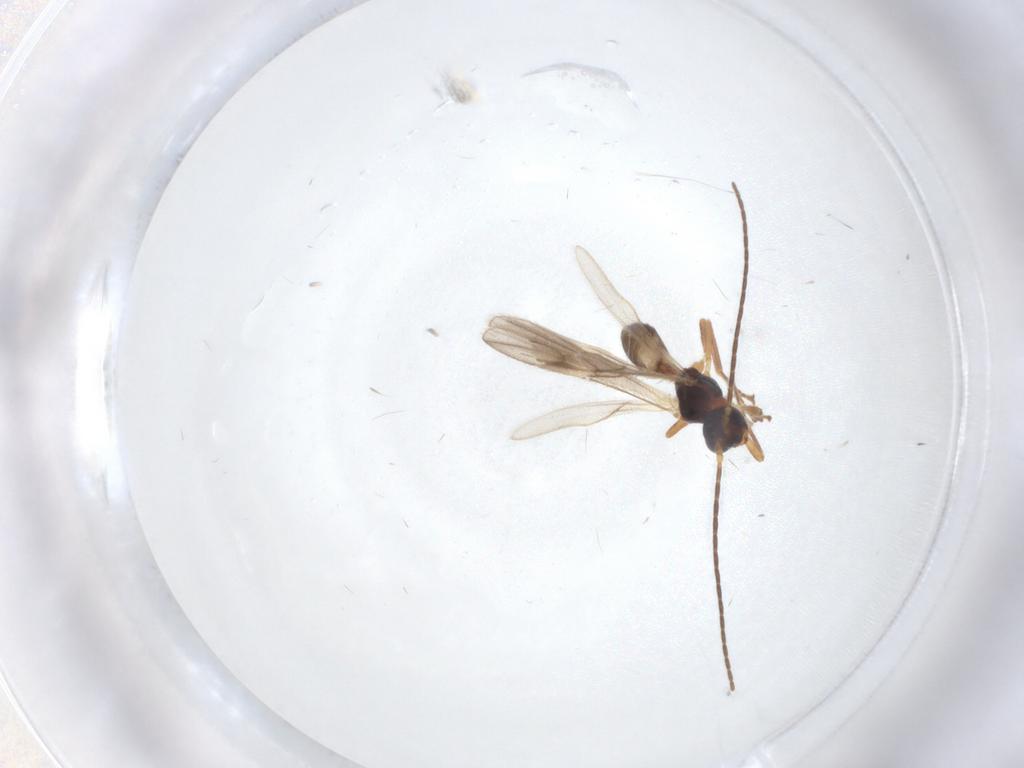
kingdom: Animalia
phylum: Arthropoda
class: Insecta
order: Hymenoptera
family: Braconidae
